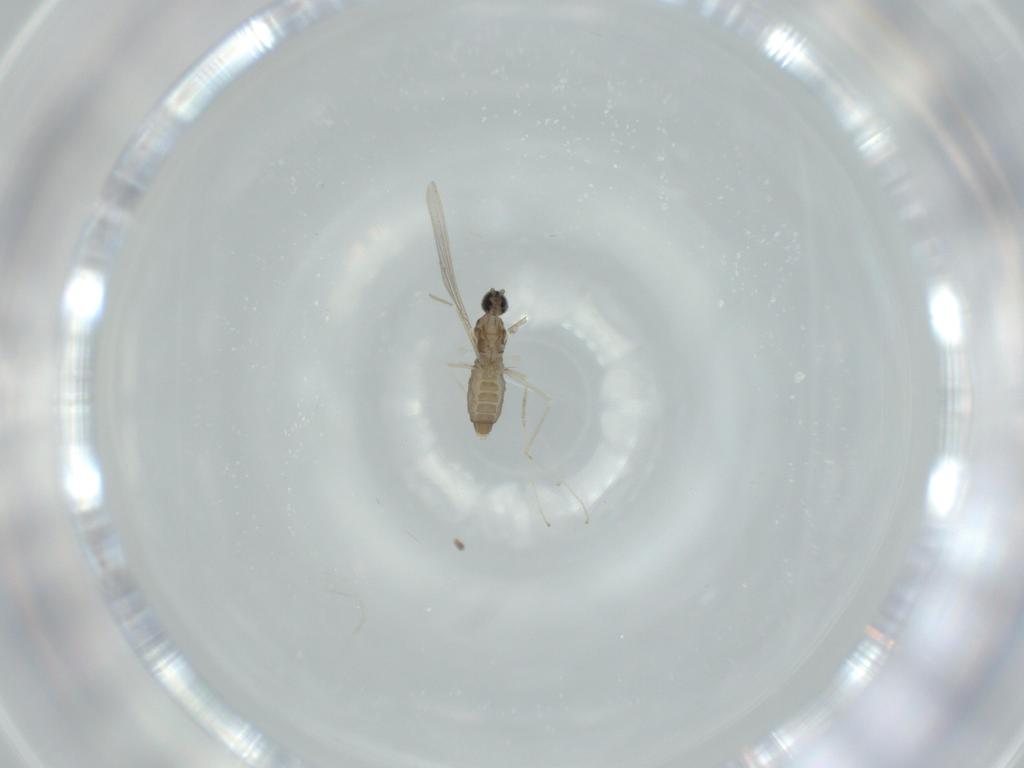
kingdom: Animalia
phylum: Arthropoda
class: Insecta
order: Diptera
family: Cecidomyiidae
